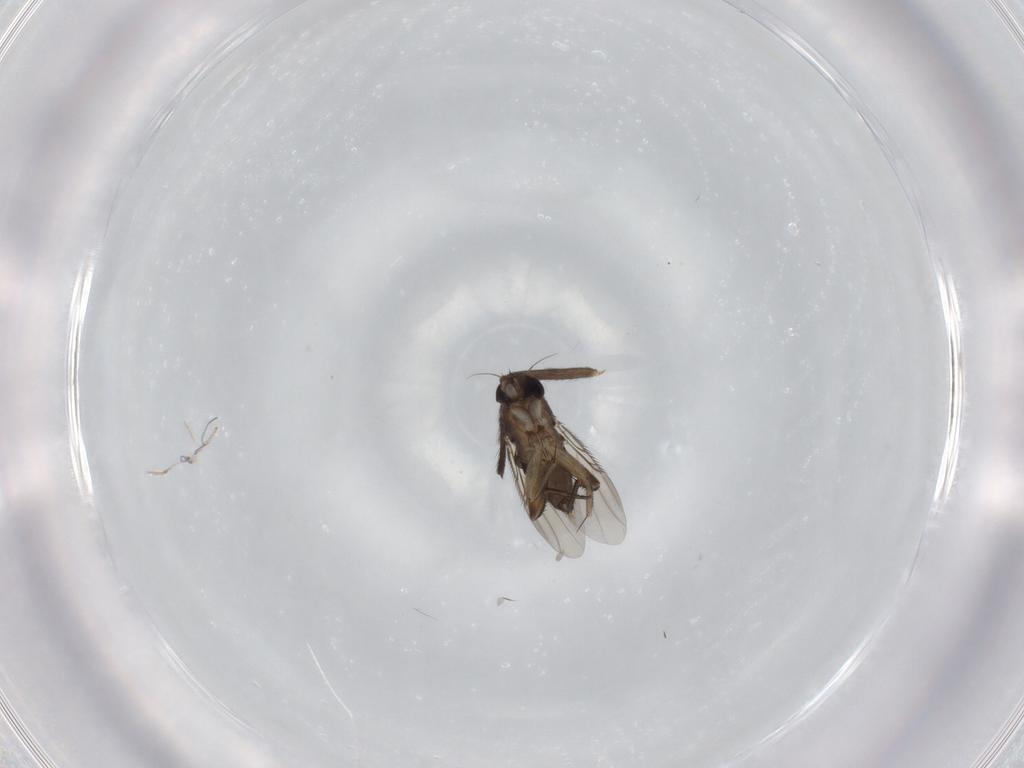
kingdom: Animalia
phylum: Arthropoda
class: Insecta
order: Diptera
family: Phoridae
